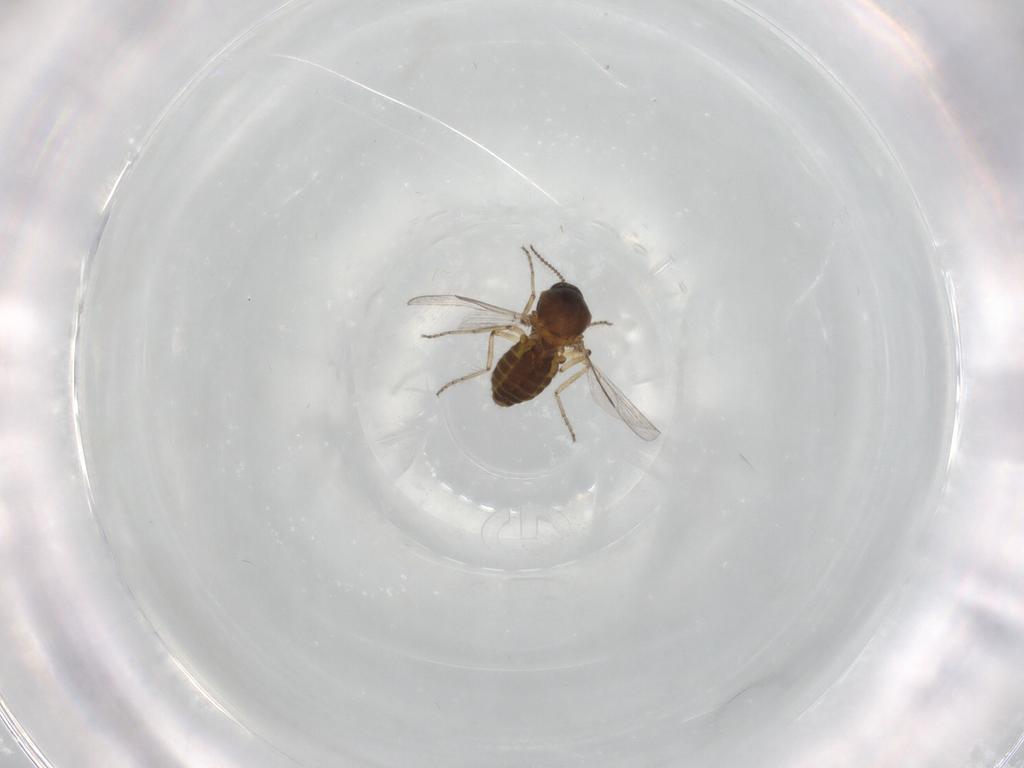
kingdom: Animalia
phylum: Arthropoda
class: Insecta
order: Diptera
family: Ceratopogonidae
